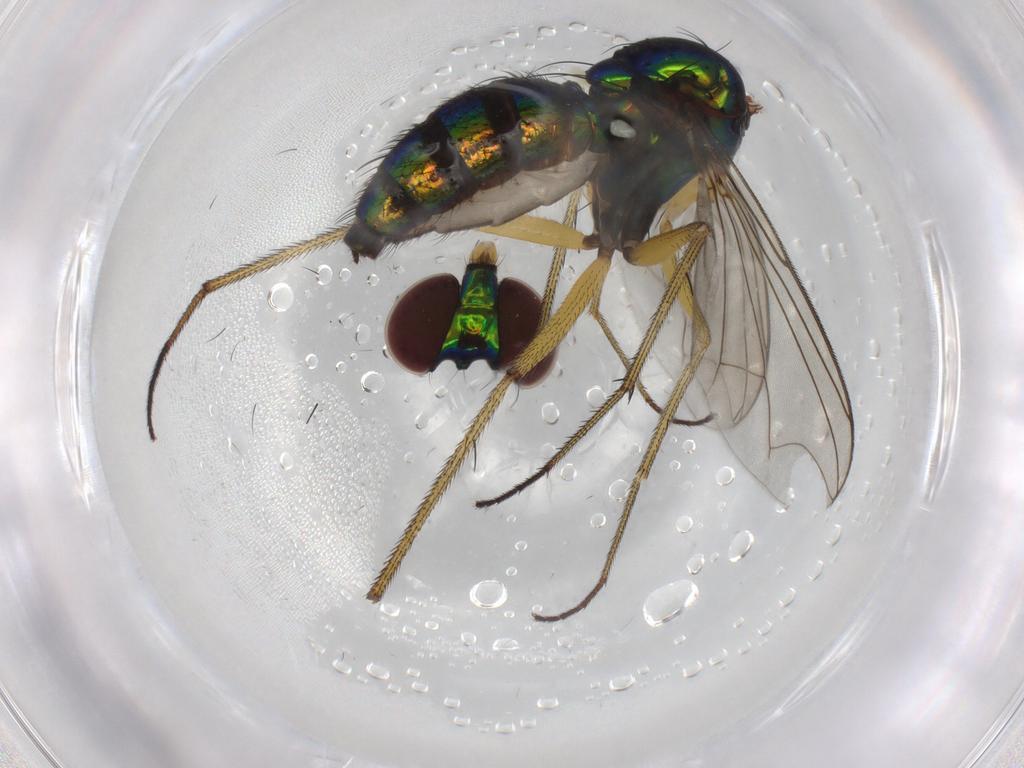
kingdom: Animalia
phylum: Arthropoda
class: Insecta
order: Diptera
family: Dolichopodidae
